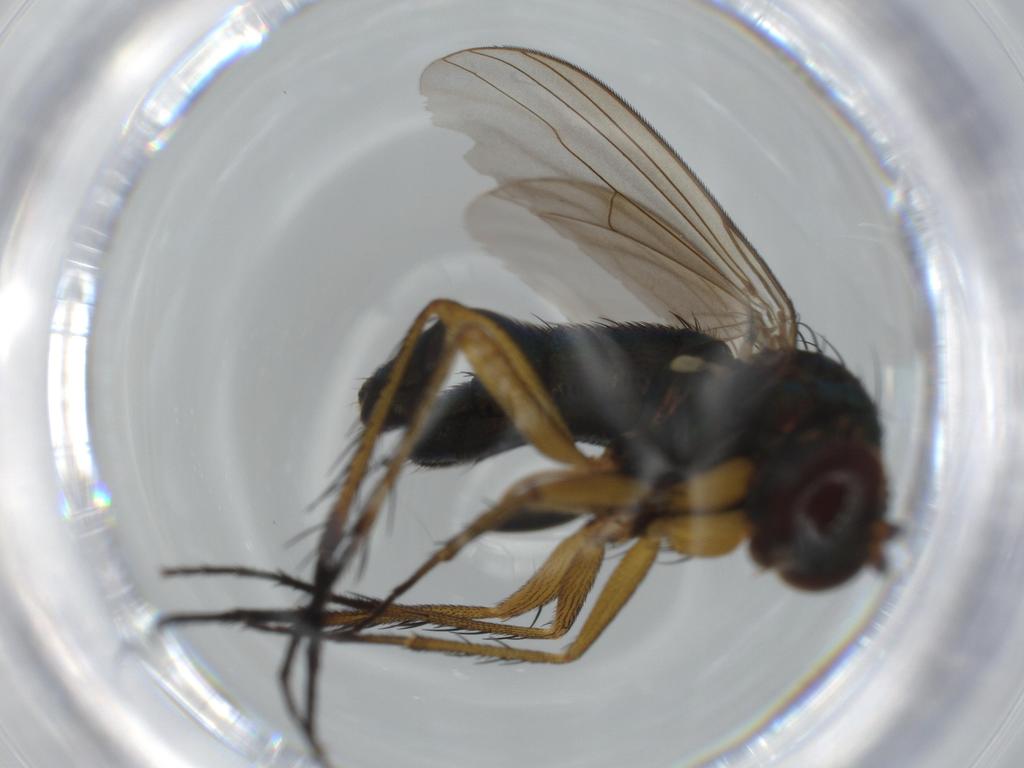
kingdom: Animalia
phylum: Arthropoda
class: Insecta
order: Diptera
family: Dolichopodidae
